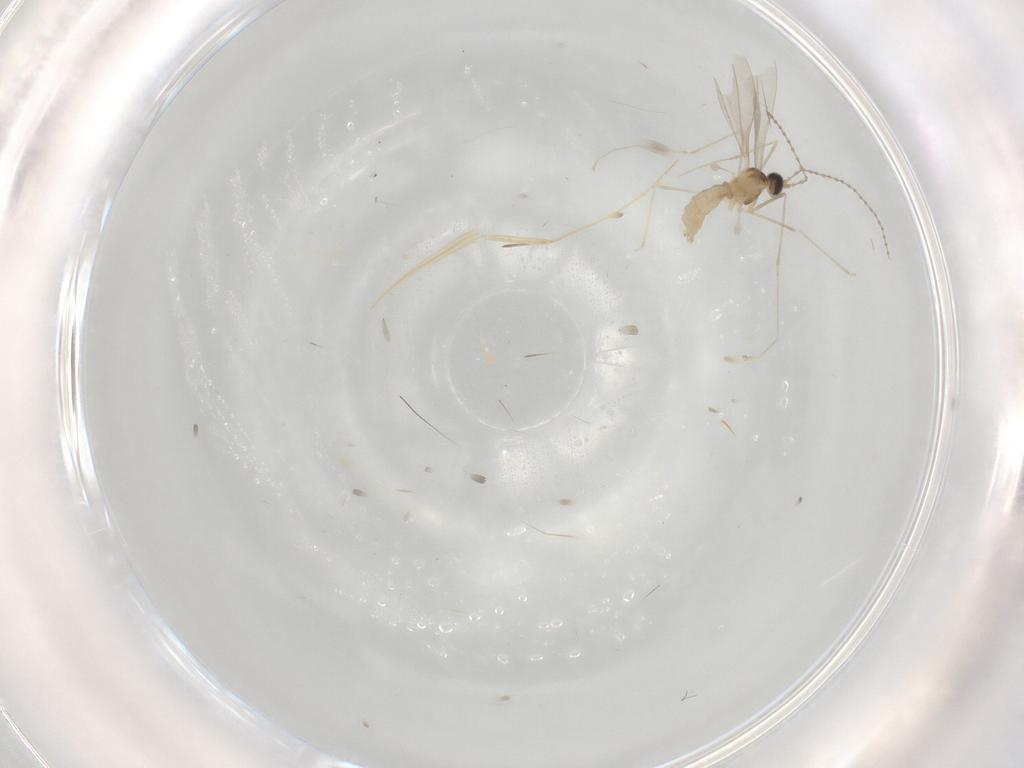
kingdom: Animalia
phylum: Arthropoda
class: Insecta
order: Diptera
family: Cecidomyiidae
